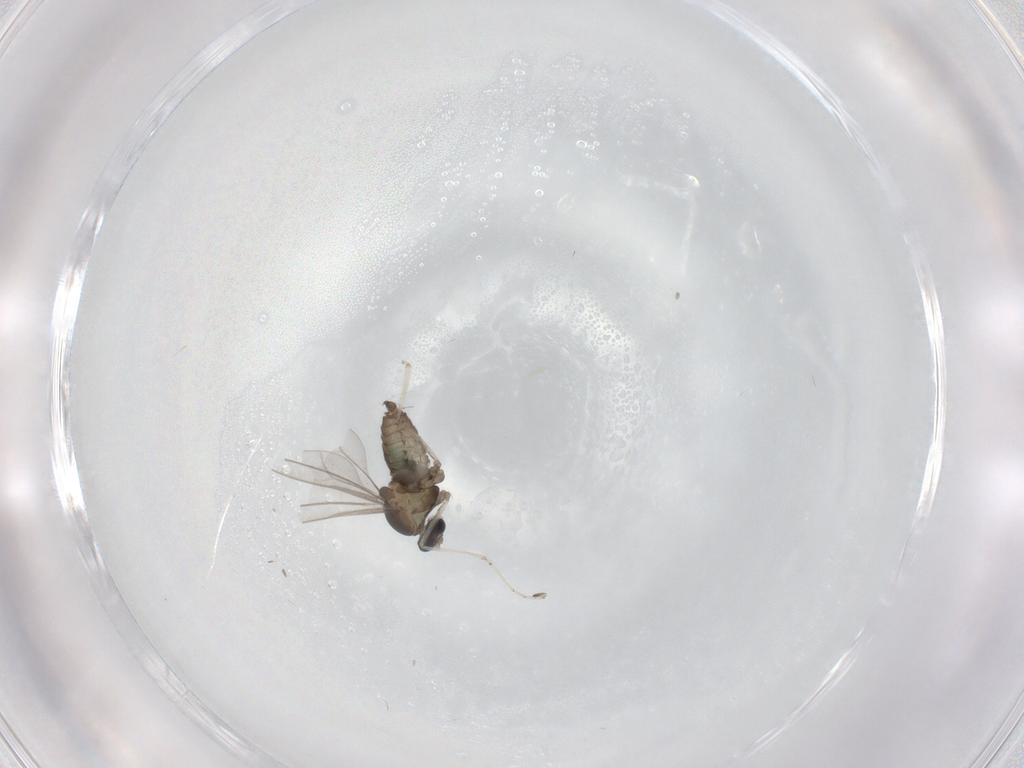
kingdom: Animalia
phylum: Arthropoda
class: Insecta
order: Diptera
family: Cecidomyiidae
